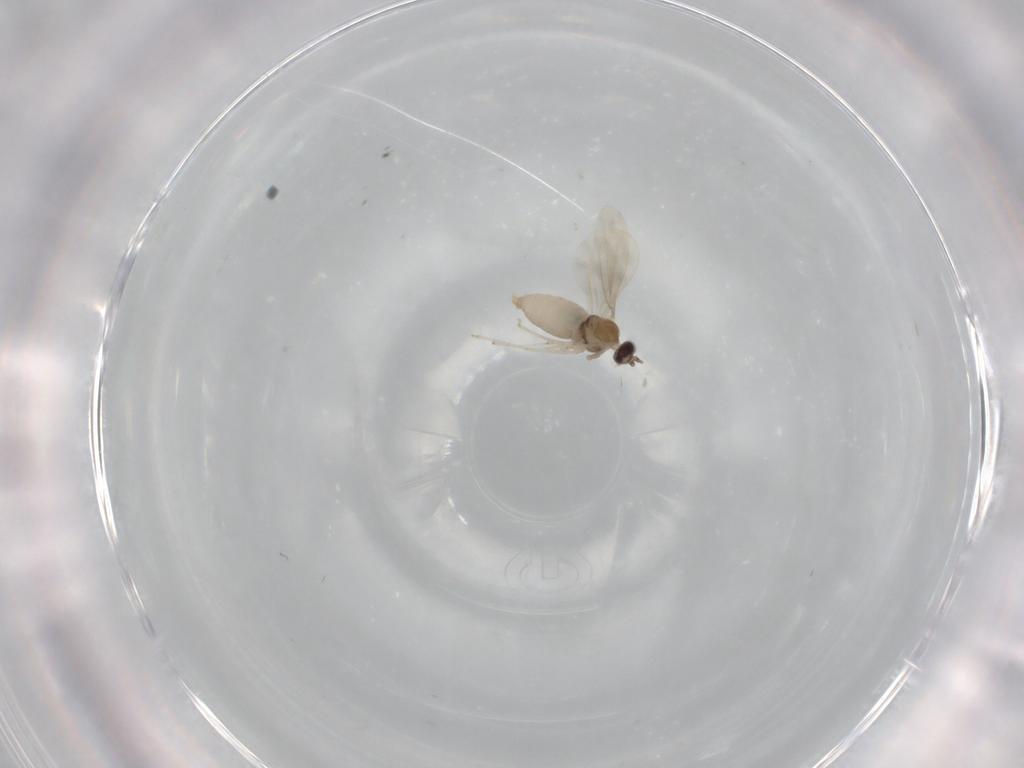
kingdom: Animalia
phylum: Arthropoda
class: Insecta
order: Diptera
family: Cecidomyiidae
